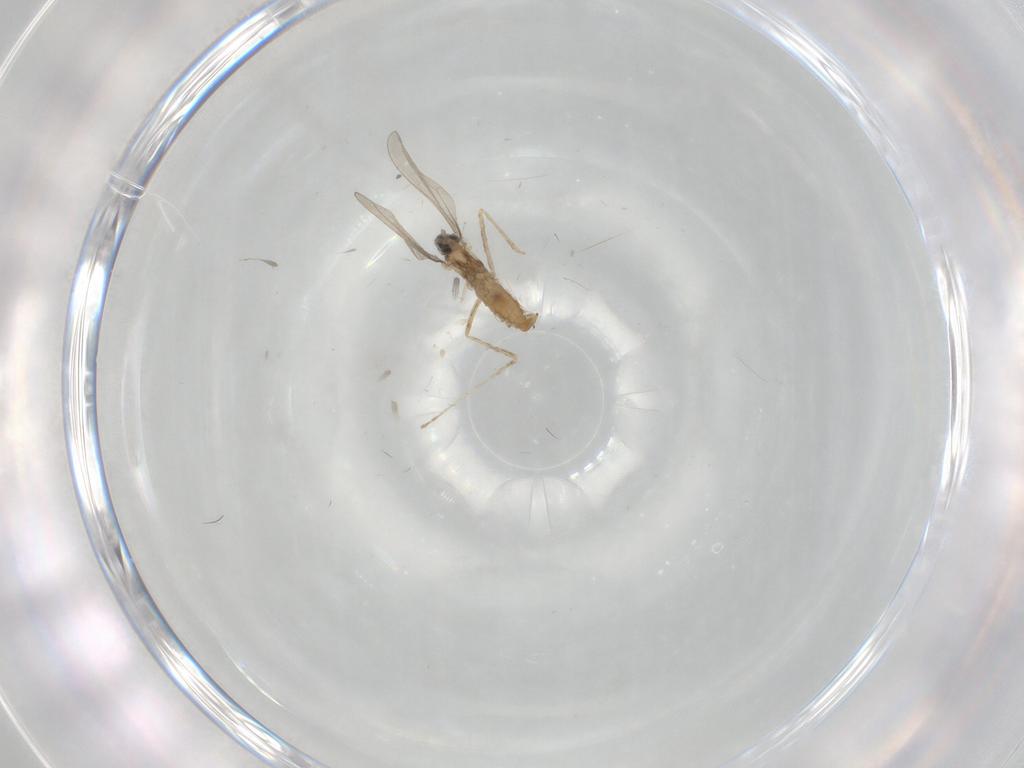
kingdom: Animalia
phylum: Arthropoda
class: Insecta
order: Diptera
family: Cecidomyiidae
